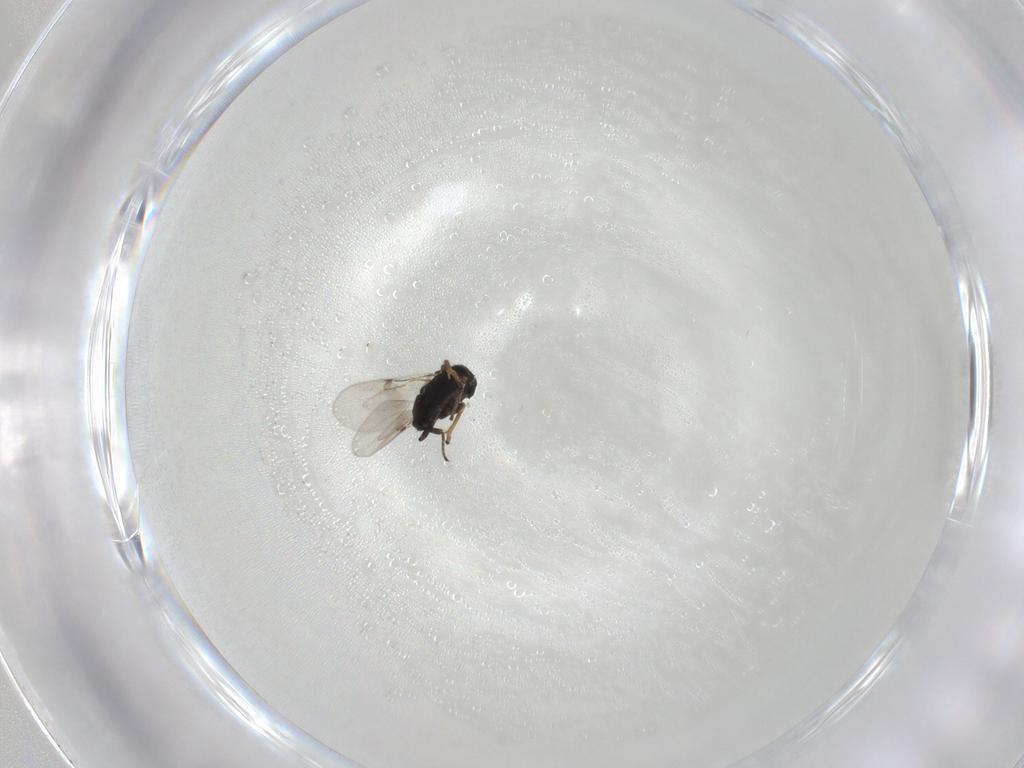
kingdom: Animalia
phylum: Arthropoda
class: Insecta
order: Hymenoptera
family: Encyrtidae
